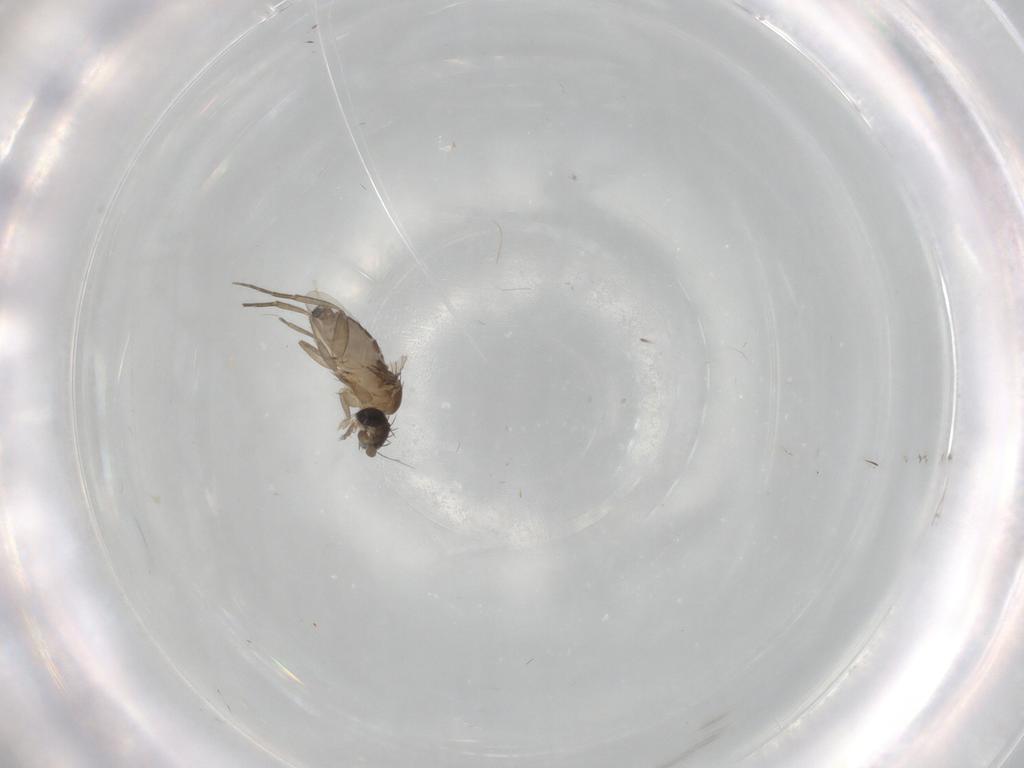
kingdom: Animalia
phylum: Arthropoda
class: Insecta
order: Diptera
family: Phoridae
